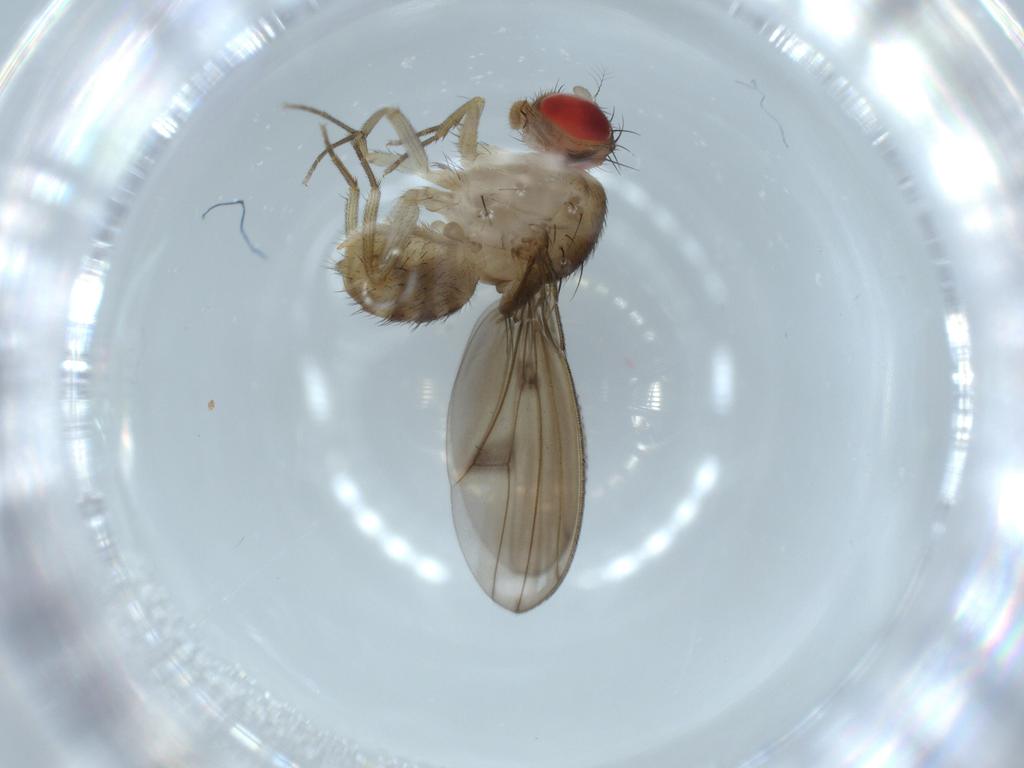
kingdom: Animalia
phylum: Arthropoda
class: Insecta
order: Diptera
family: Drosophilidae
